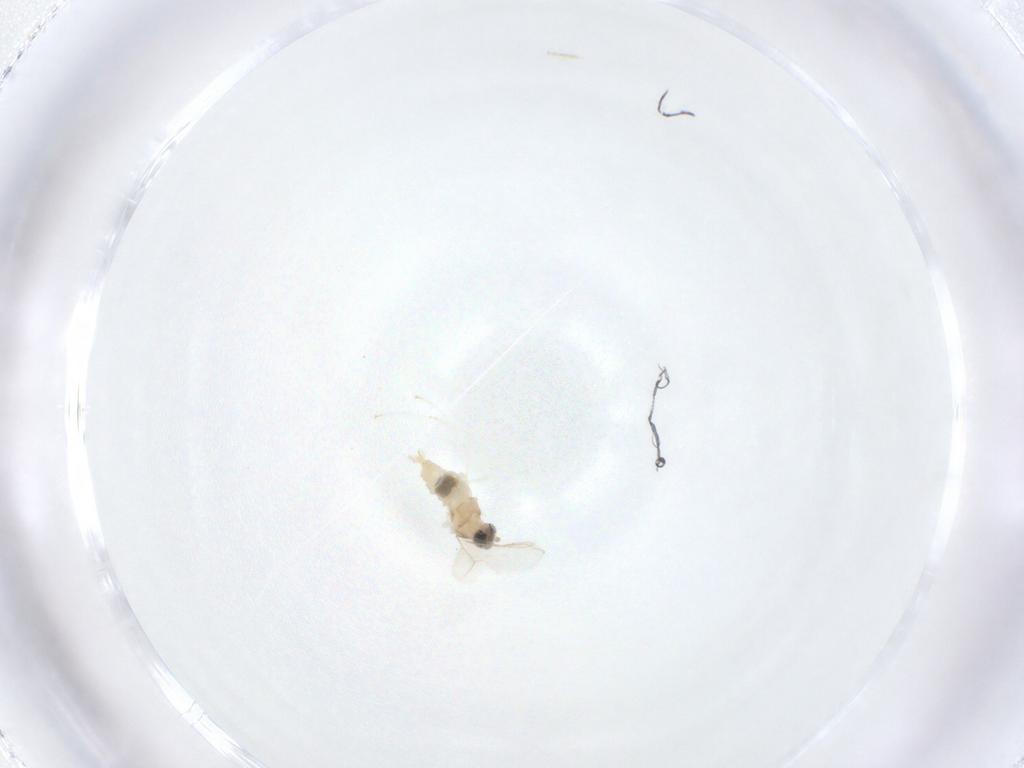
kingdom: Animalia
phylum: Arthropoda
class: Insecta
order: Diptera
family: Cecidomyiidae
